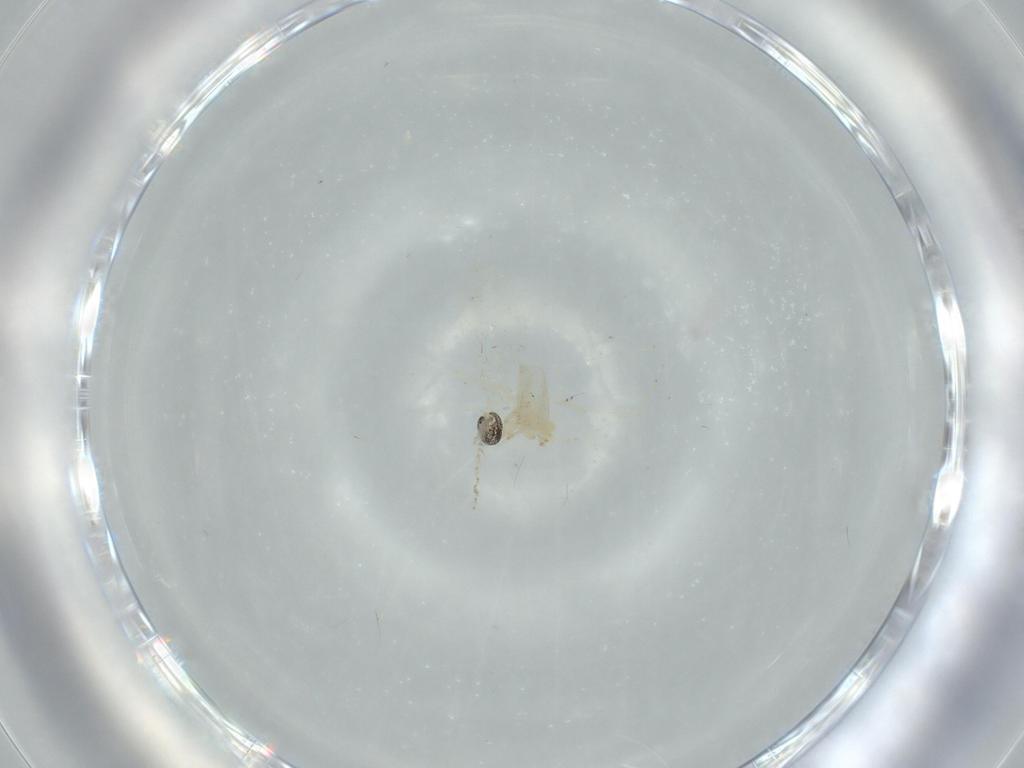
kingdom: Animalia
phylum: Arthropoda
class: Insecta
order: Diptera
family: Cecidomyiidae
